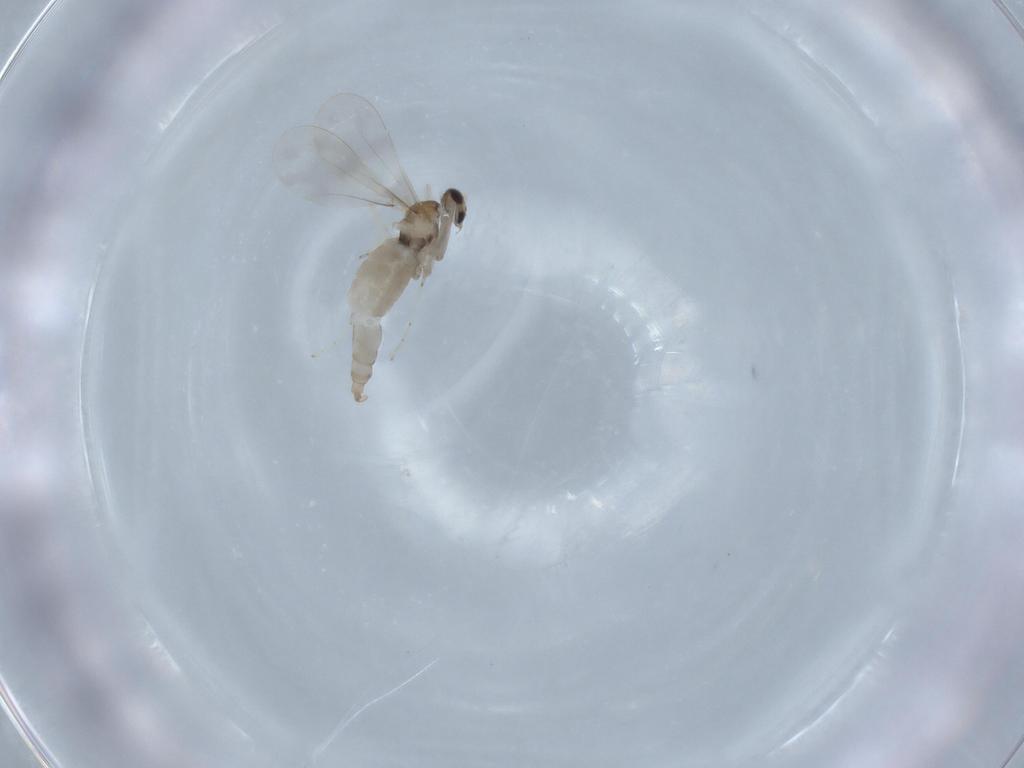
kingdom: Animalia
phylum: Arthropoda
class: Insecta
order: Diptera
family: Cecidomyiidae
